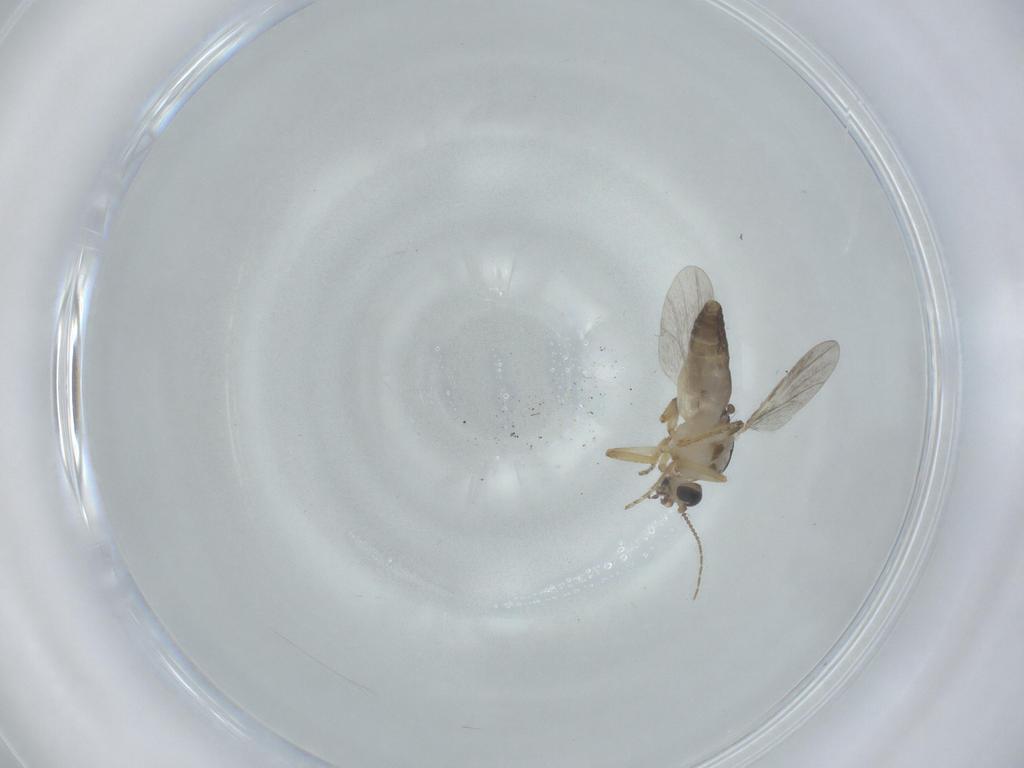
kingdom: Animalia
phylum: Arthropoda
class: Insecta
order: Diptera
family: Ceratopogonidae
